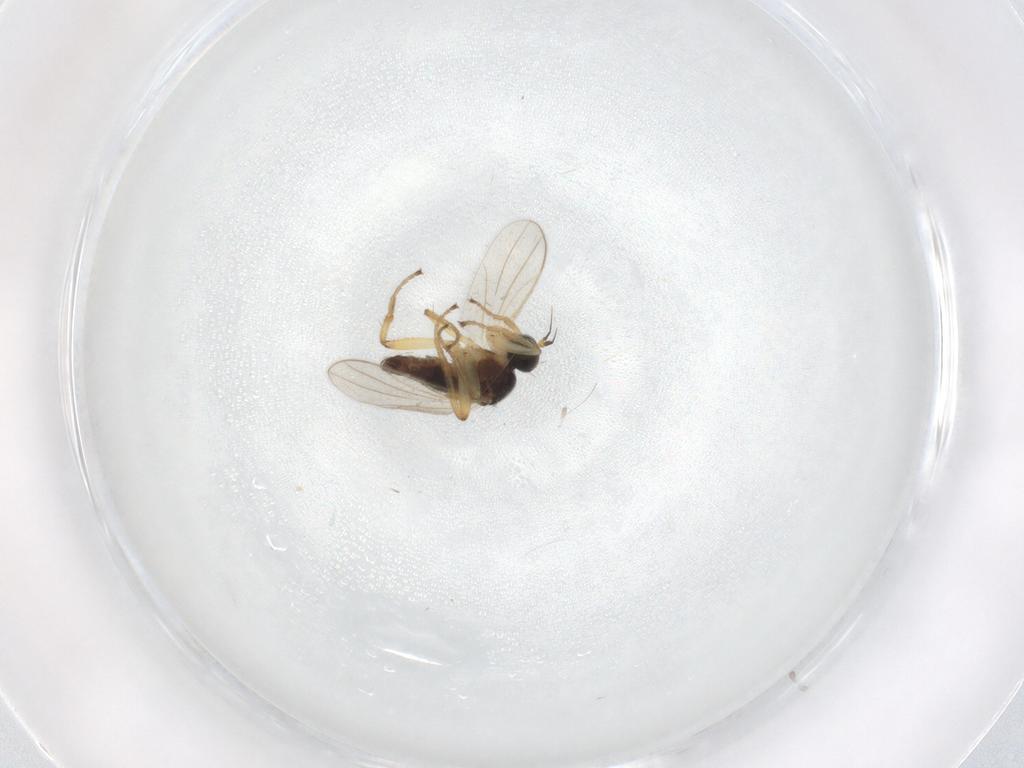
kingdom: Animalia
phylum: Arthropoda
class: Insecta
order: Diptera
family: Hybotidae
